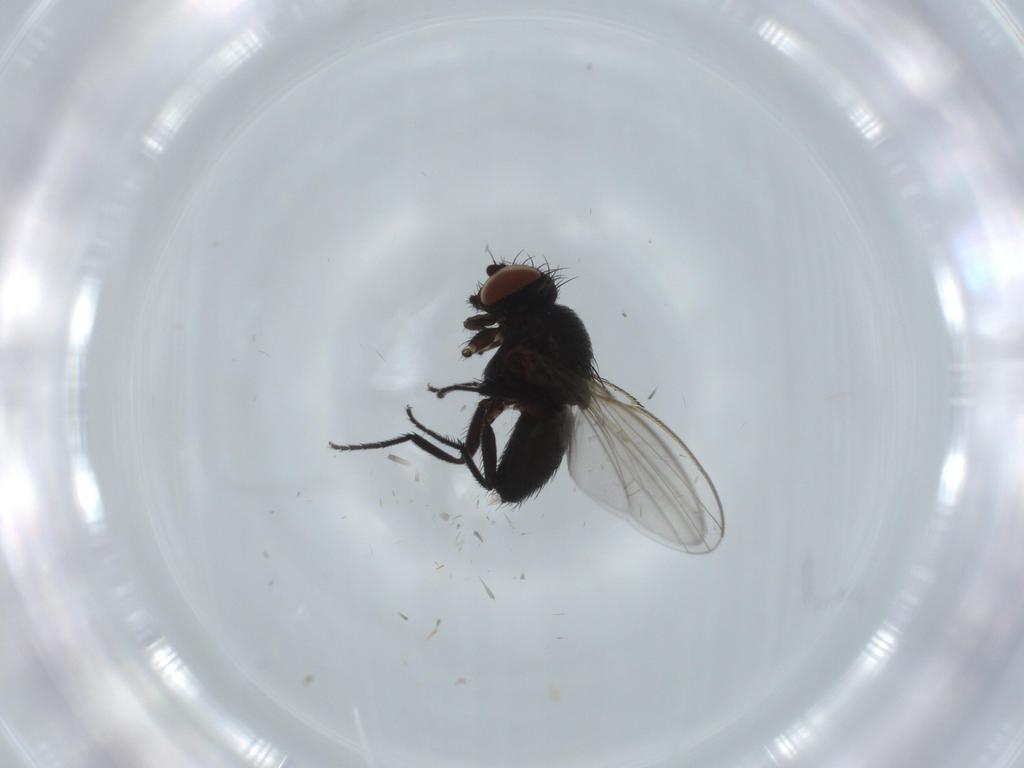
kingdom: Animalia
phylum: Arthropoda
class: Insecta
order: Diptera
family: Milichiidae
